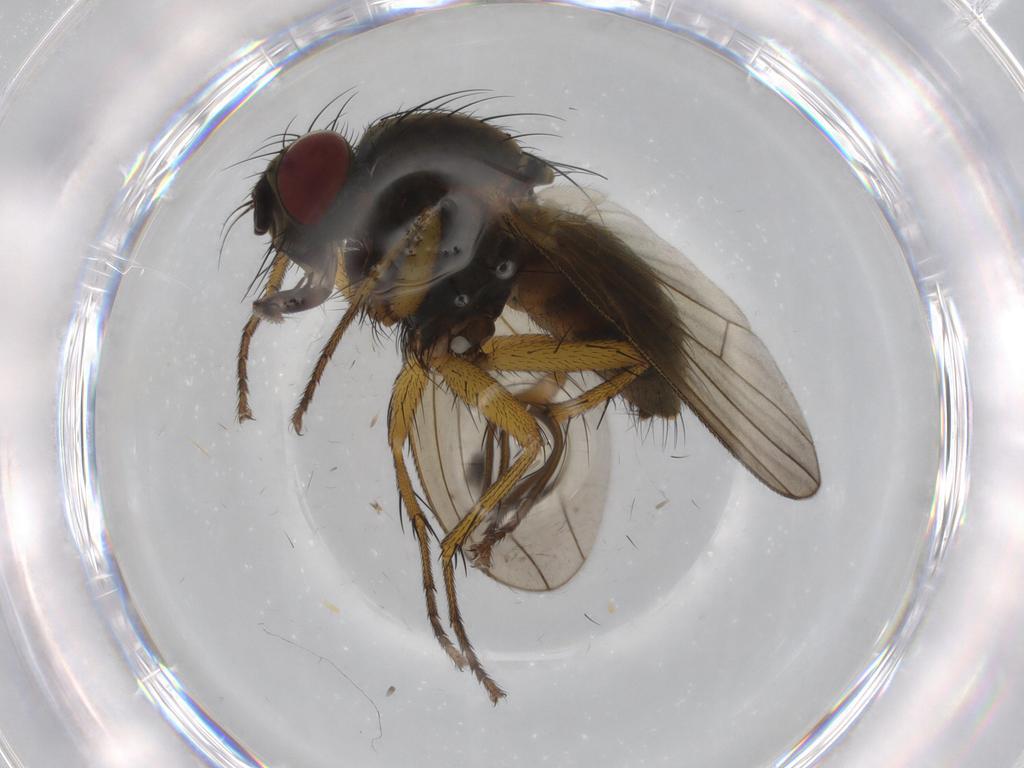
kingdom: Animalia
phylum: Arthropoda
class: Insecta
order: Diptera
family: Muscidae
